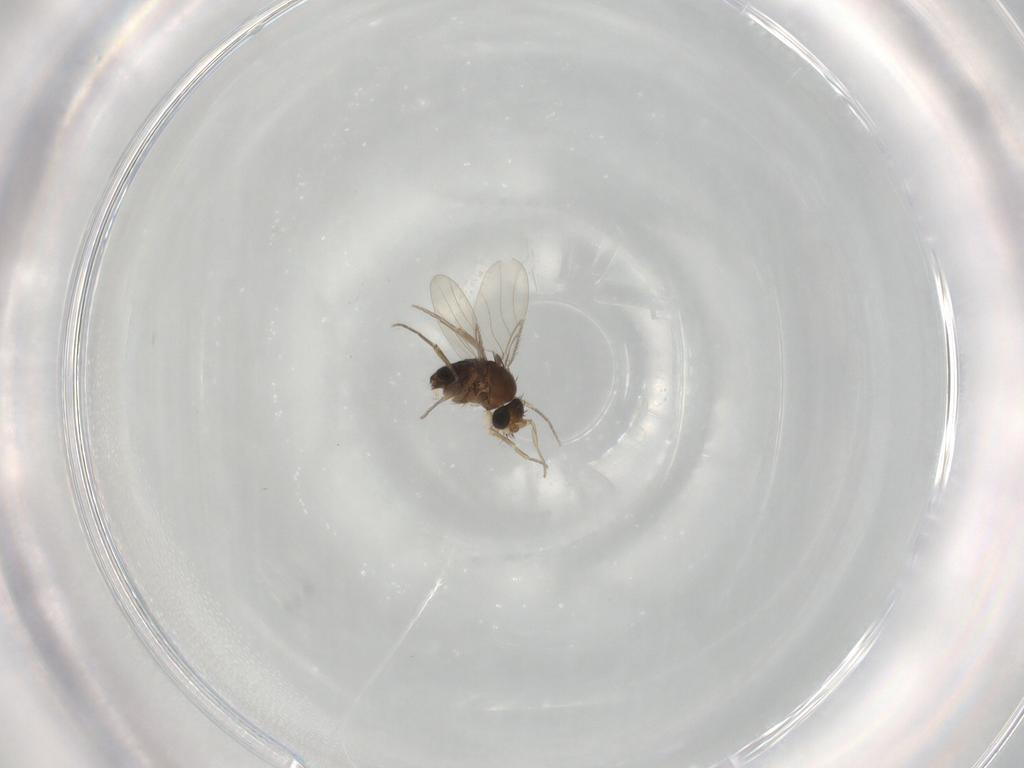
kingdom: Animalia
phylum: Arthropoda
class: Insecta
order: Diptera
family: Phoridae
